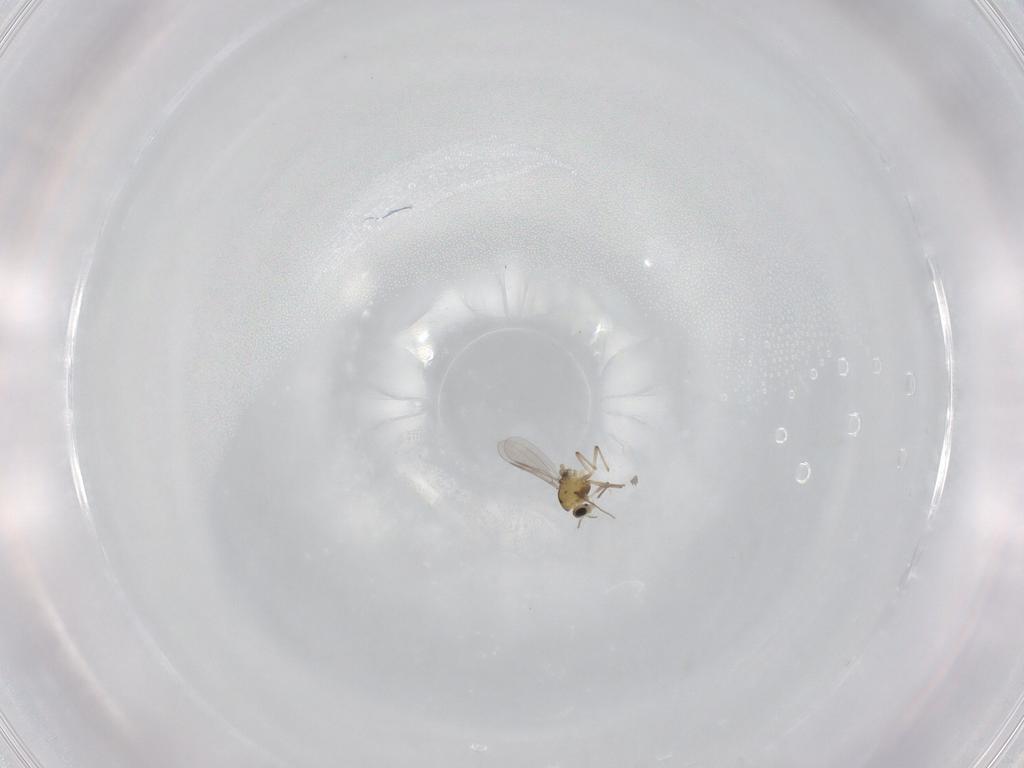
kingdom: Animalia
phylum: Arthropoda
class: Insecta
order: Diptera
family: Chironomidae
